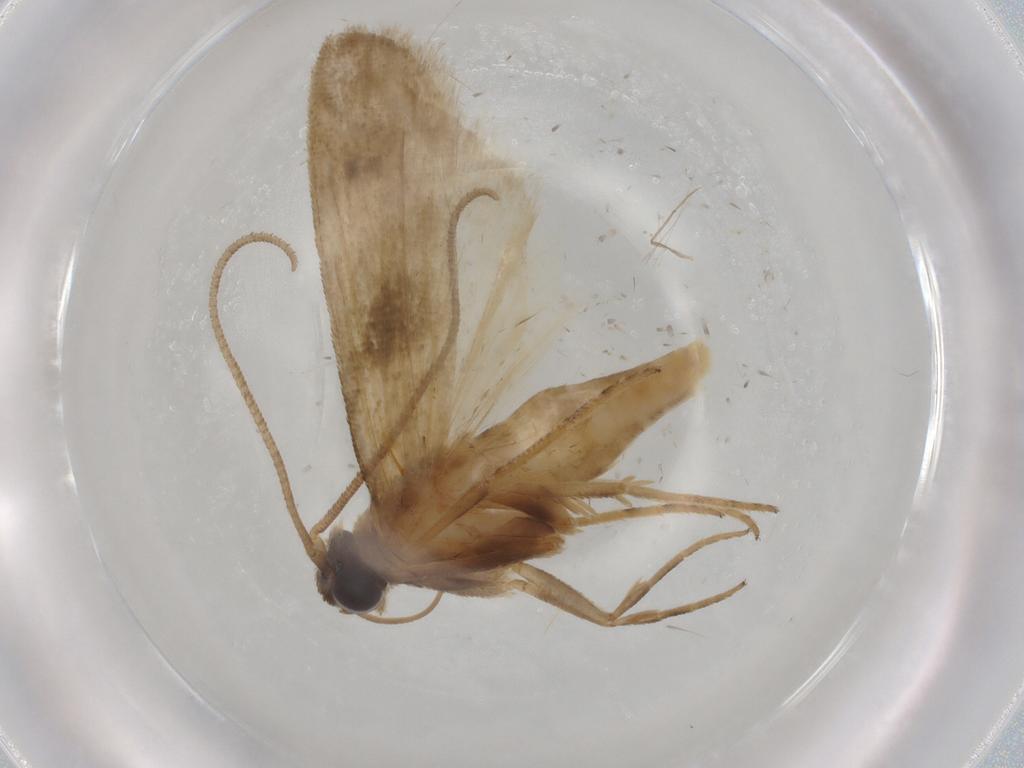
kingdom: Animalia
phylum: Arthropoda
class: Insecta
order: Lepidoptera
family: Noctuidae
